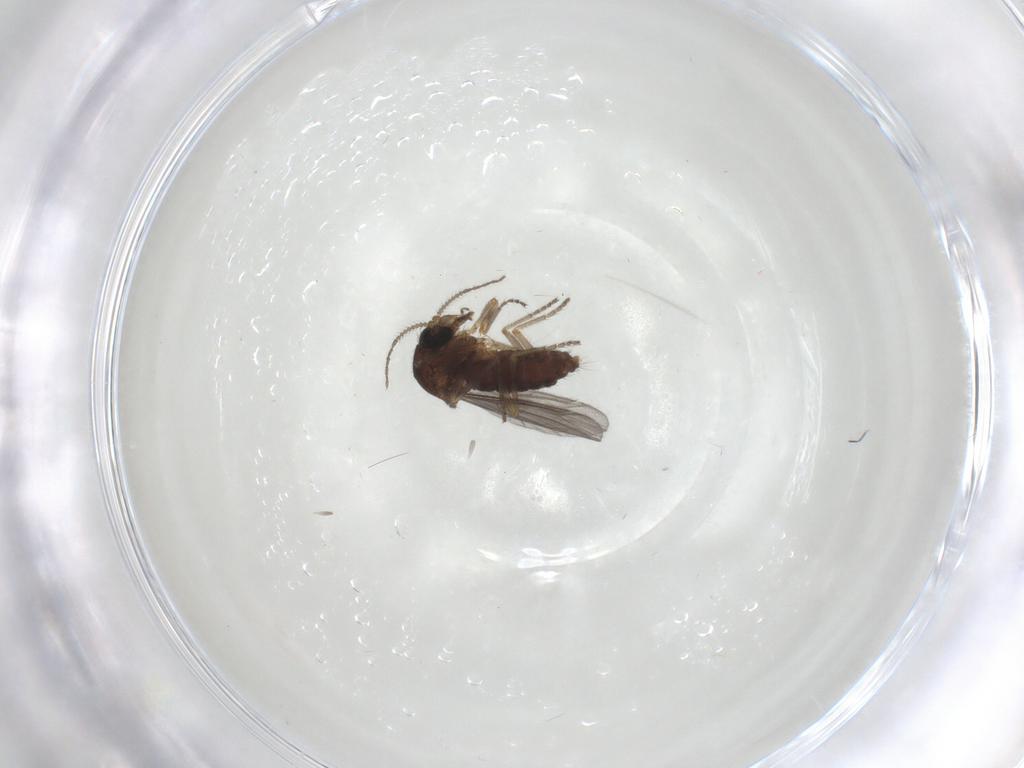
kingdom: Animalia
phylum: Arthropoda
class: Insecta
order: Diptera
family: Ceratopogonidae
